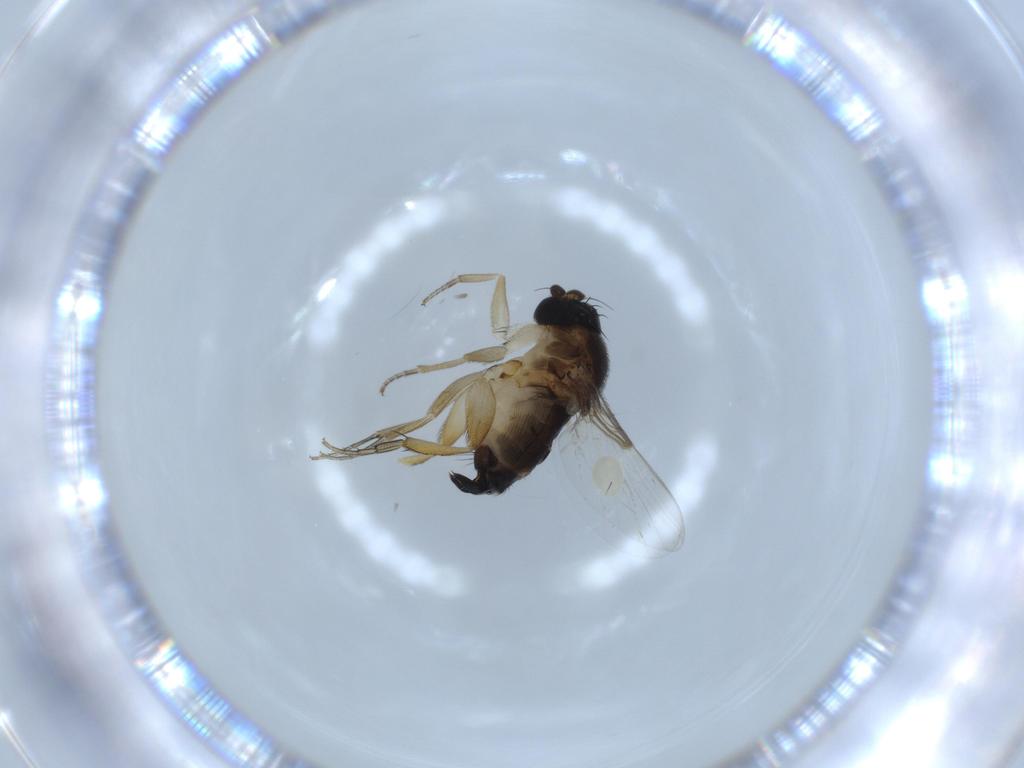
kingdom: Animalia
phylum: Arthropoda
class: Insecta
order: Diptera
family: Phoridae
